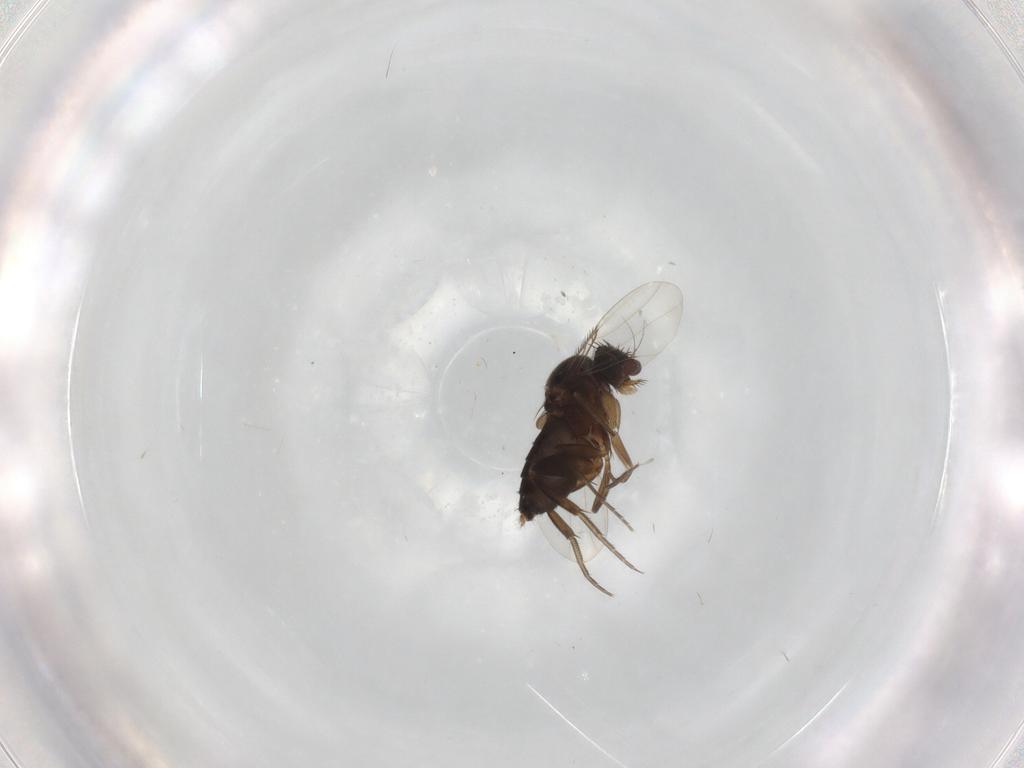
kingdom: Animalia
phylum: Arthropoda
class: Insecta
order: Diptera
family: Phoridae
